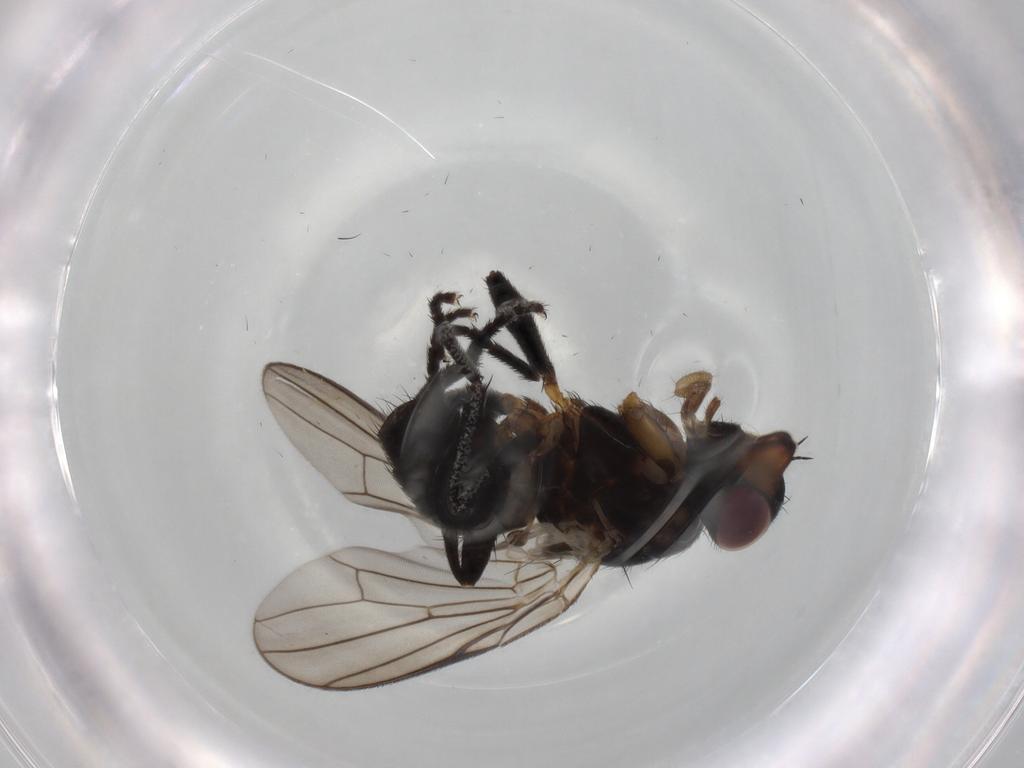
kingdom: Animalia
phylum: Arthropoda
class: Insecta
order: Diptera
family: Calliphoridae
